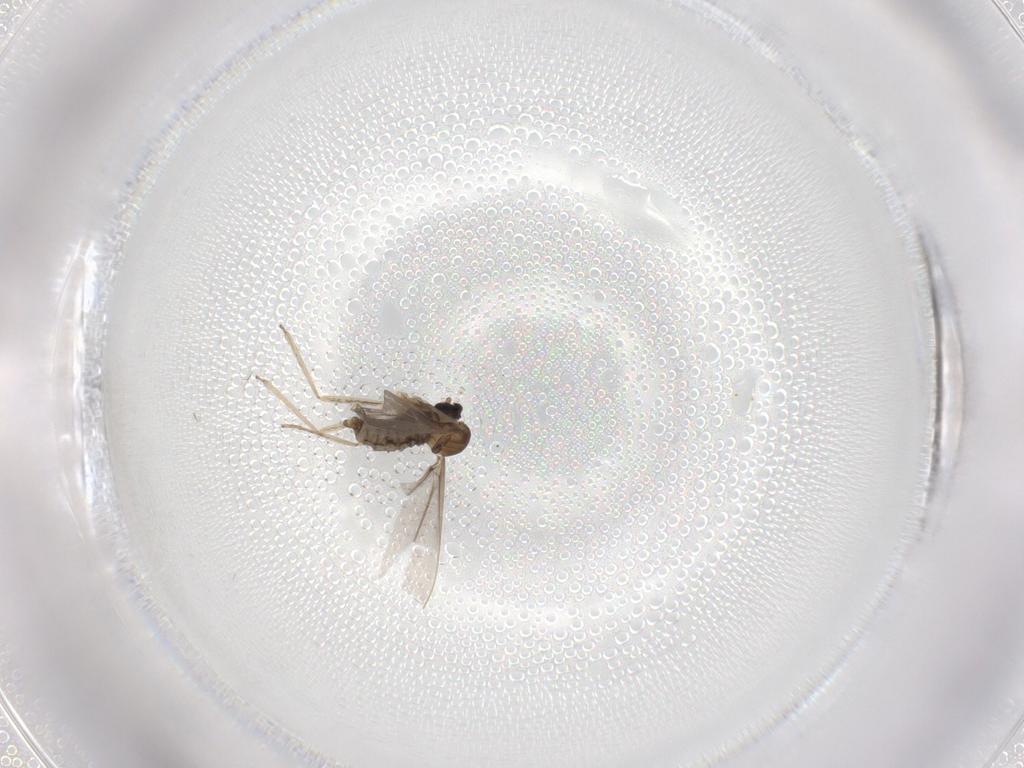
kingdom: Animalia
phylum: Arthropoda
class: Insecta
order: Diptera
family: Cecidomyiidae
